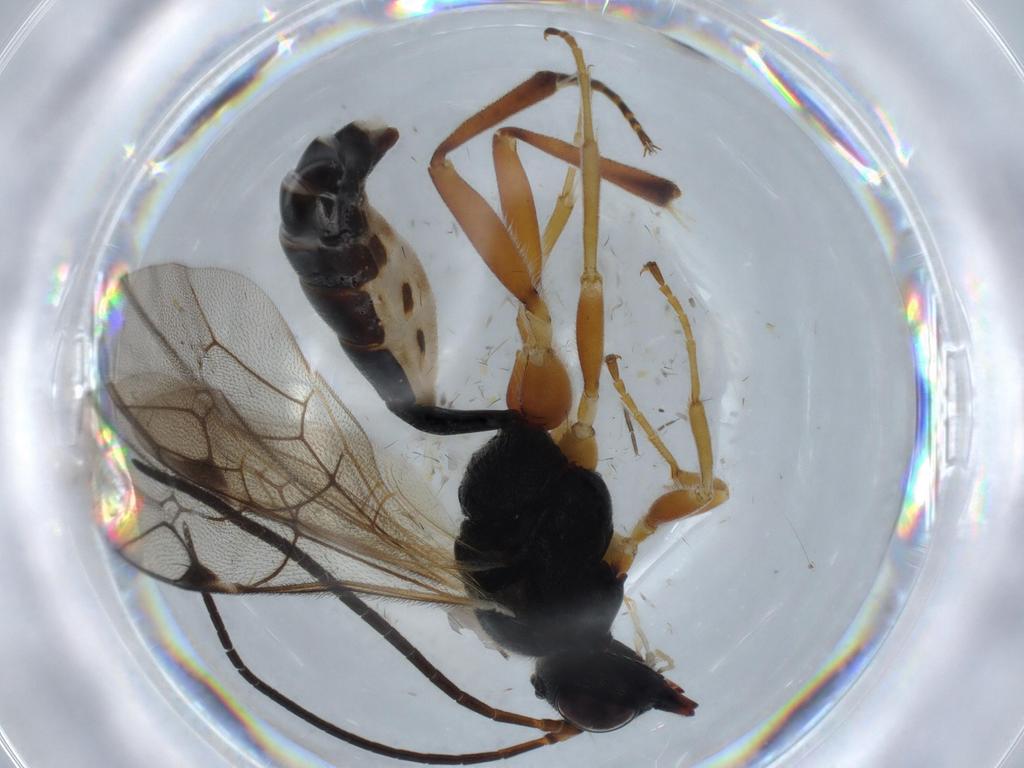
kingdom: Animalia
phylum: Arthropoda
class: Insecta
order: Hymenoptera
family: Ichneumonidae
